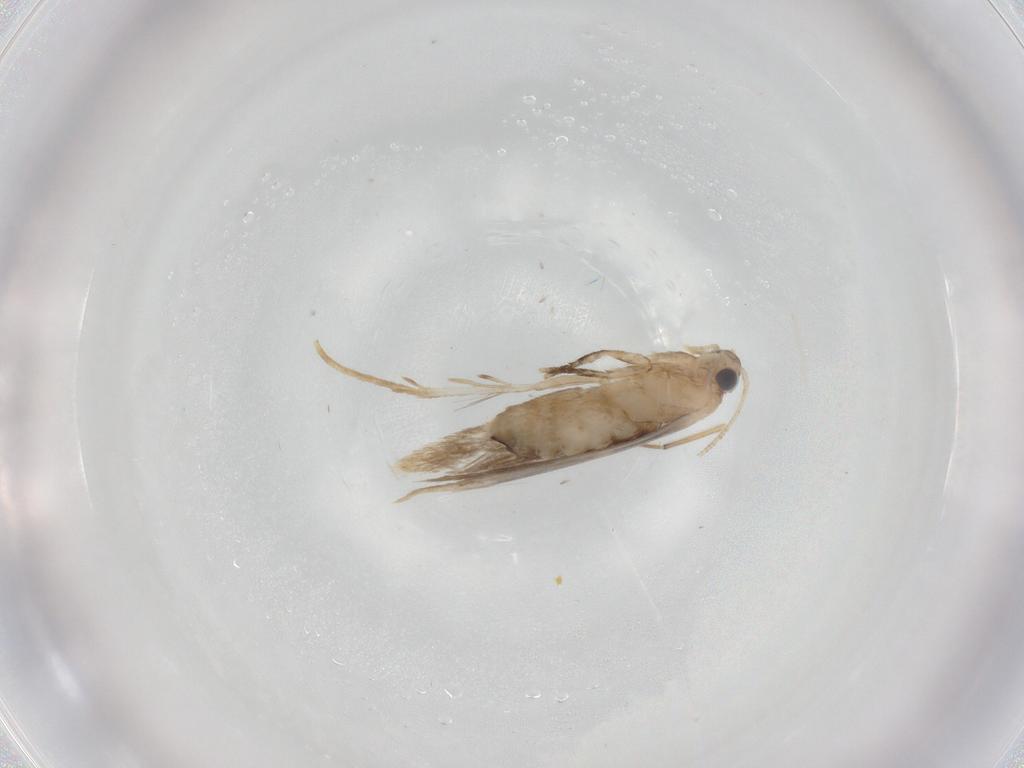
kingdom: Animalia
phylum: Arthropoda
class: Insecta
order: Lepidoptera
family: Dryadaulidae
